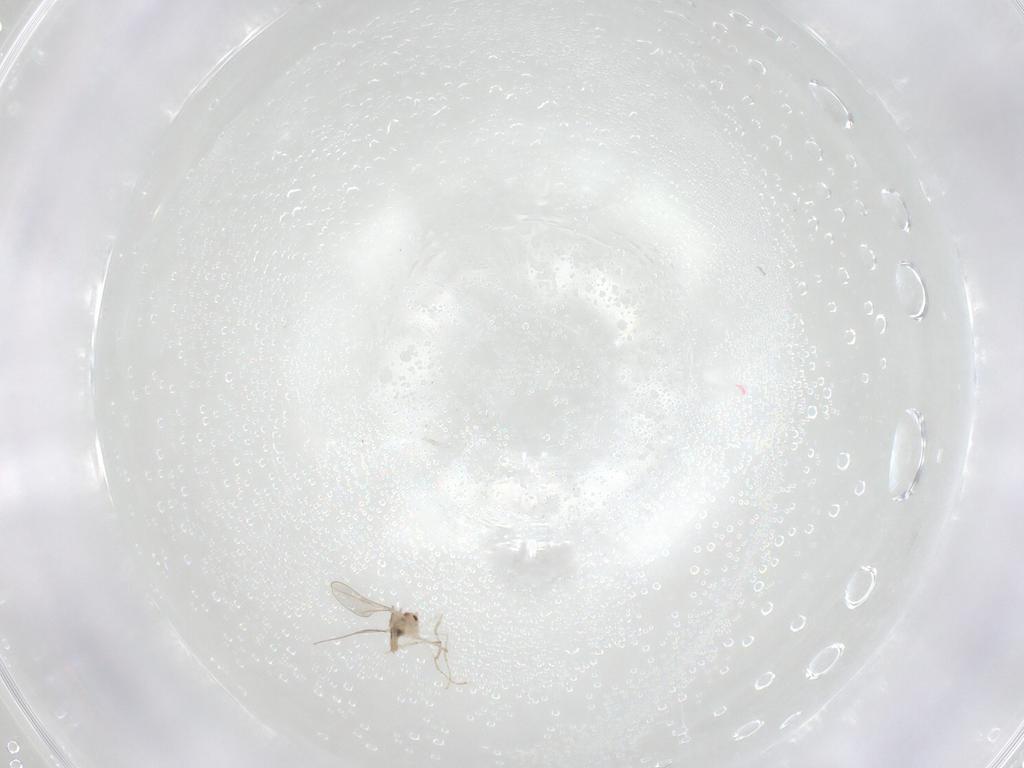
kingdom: Animalia
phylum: Arthropoda
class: Insecta
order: Diptera
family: Cecidomyiidae
